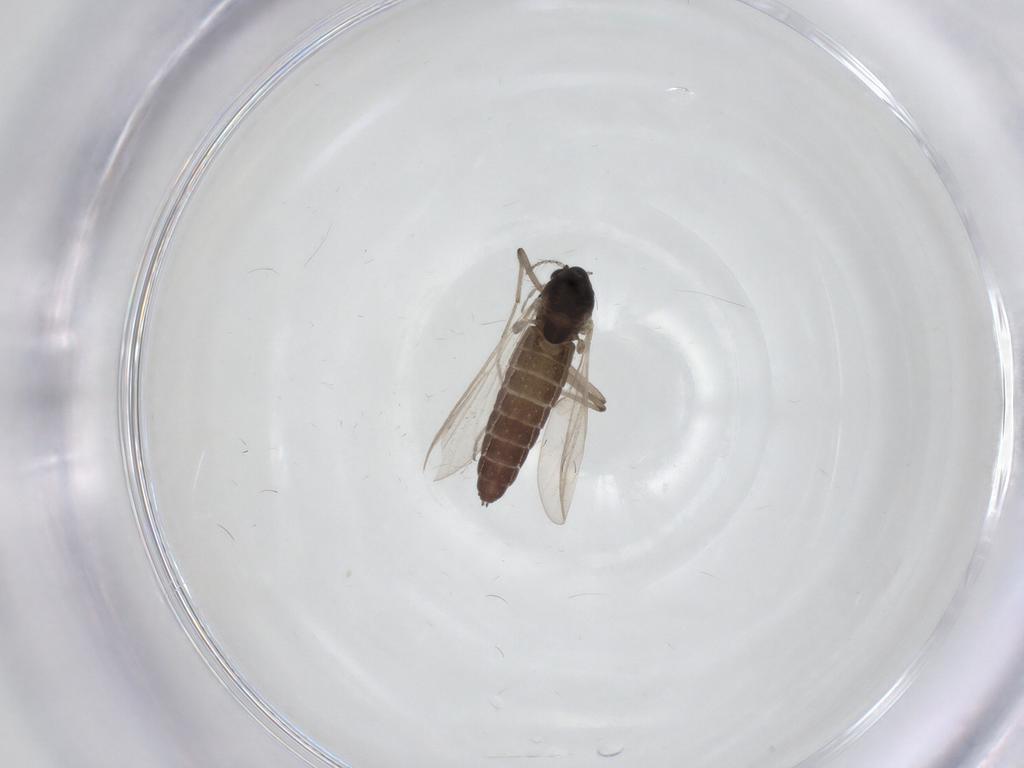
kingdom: Animalia
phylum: Arthropoda
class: Insecta
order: Diptera
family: Chironomidae
